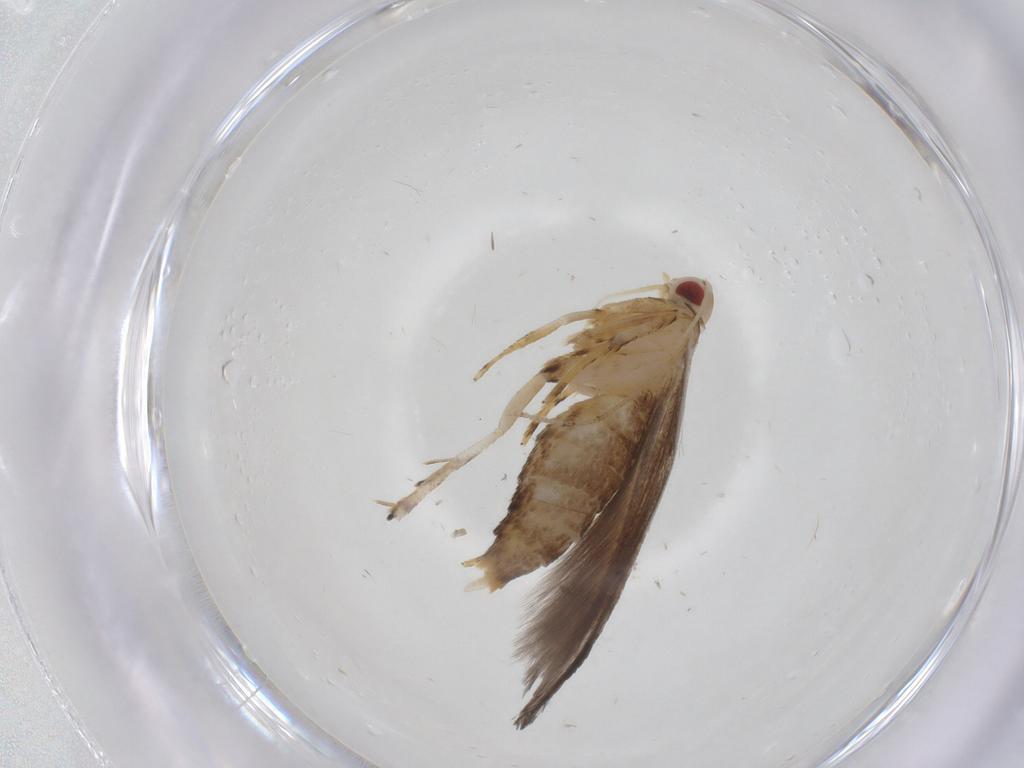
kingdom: Animalia
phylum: Arthropoda
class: Insecta
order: Lepidoptera
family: Cosmopterigidae
